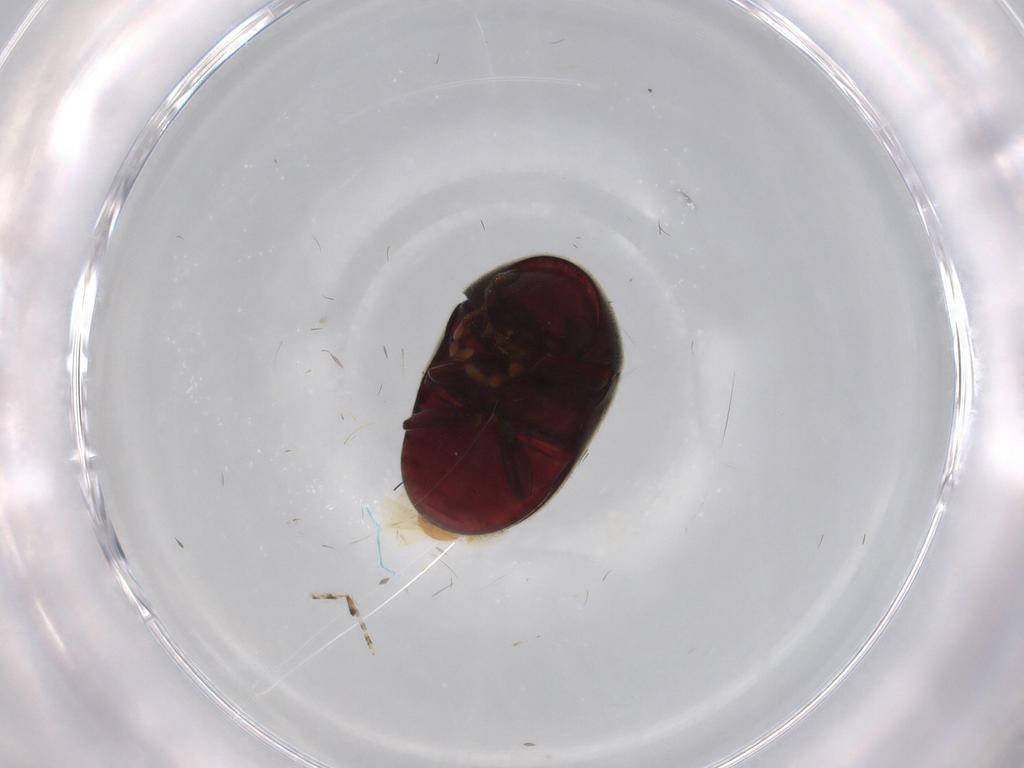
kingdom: Animalia
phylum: Arthropoda
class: Insecta
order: Coleoptera
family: Ptinidae
